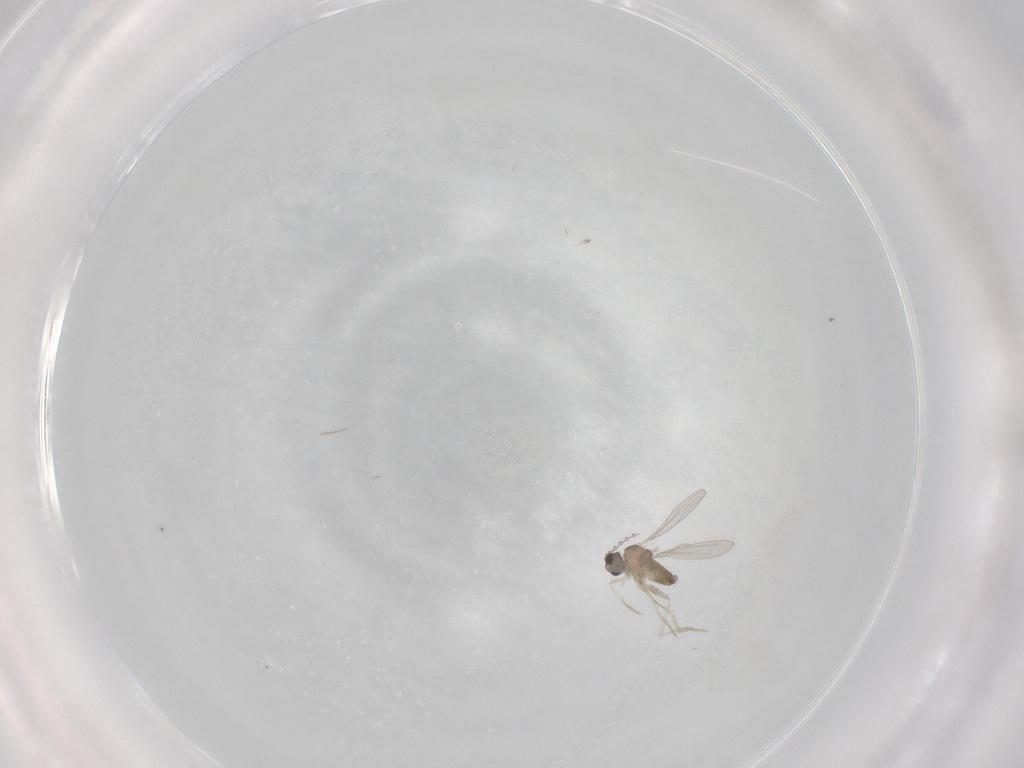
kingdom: Animalia
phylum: Arthropoda
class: Insecta
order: Diptera
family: Cecidomyiidae
